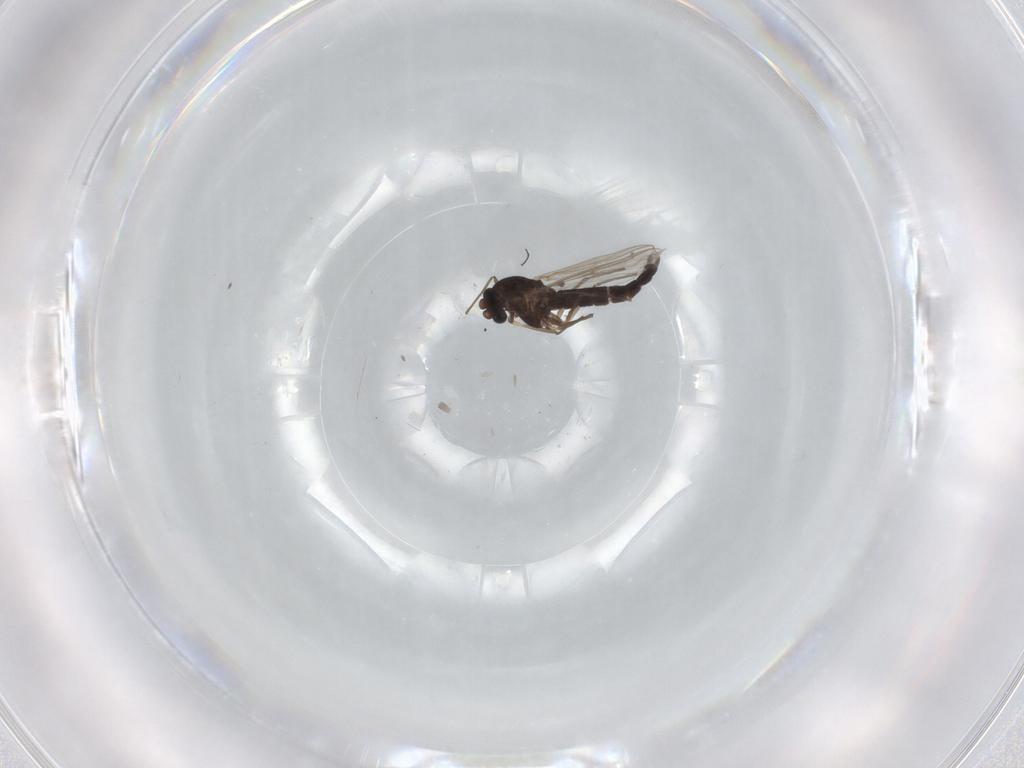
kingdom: Animalia
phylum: Arthropoda
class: Insecta
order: Diptera
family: Chironomidae
